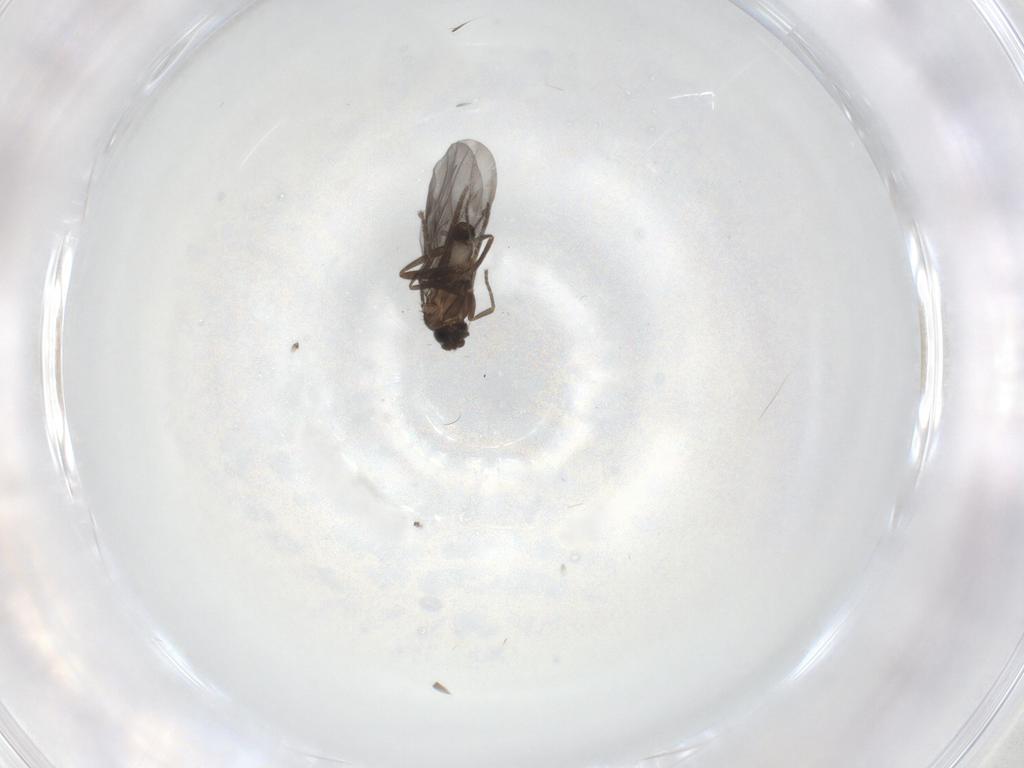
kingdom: Animalia
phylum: Arthropoda
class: Insecta
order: Diptera
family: Phoridae
